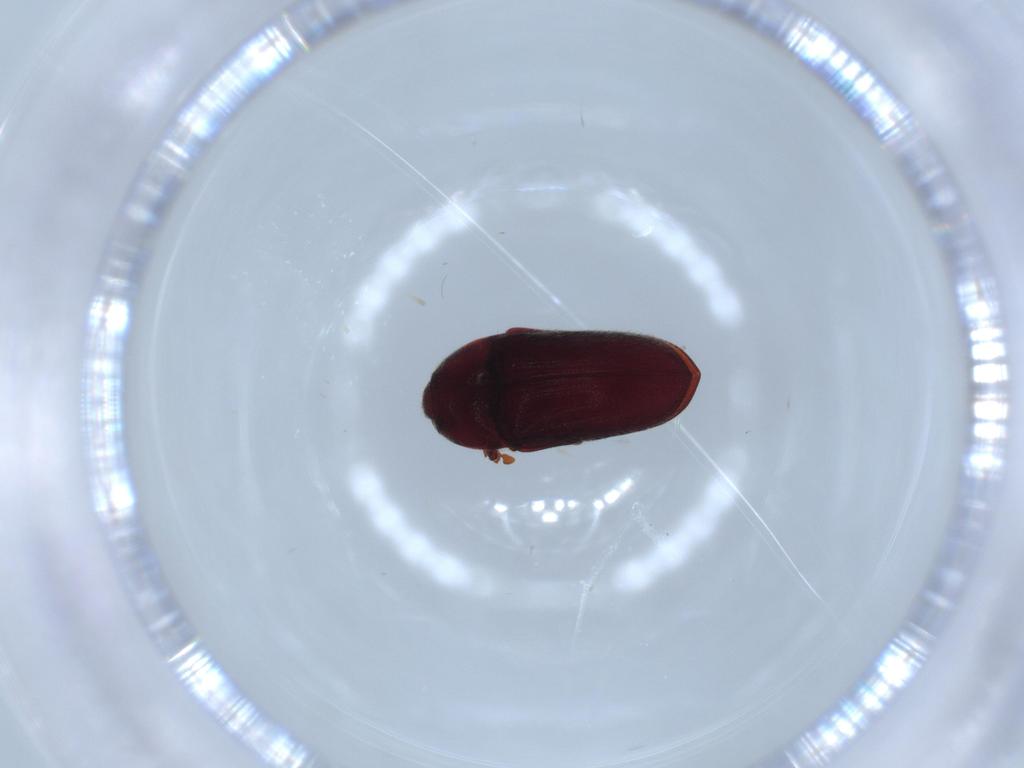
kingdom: Animalia
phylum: Arthropoda
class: Insecta
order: Coleoptera
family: Throscidae
